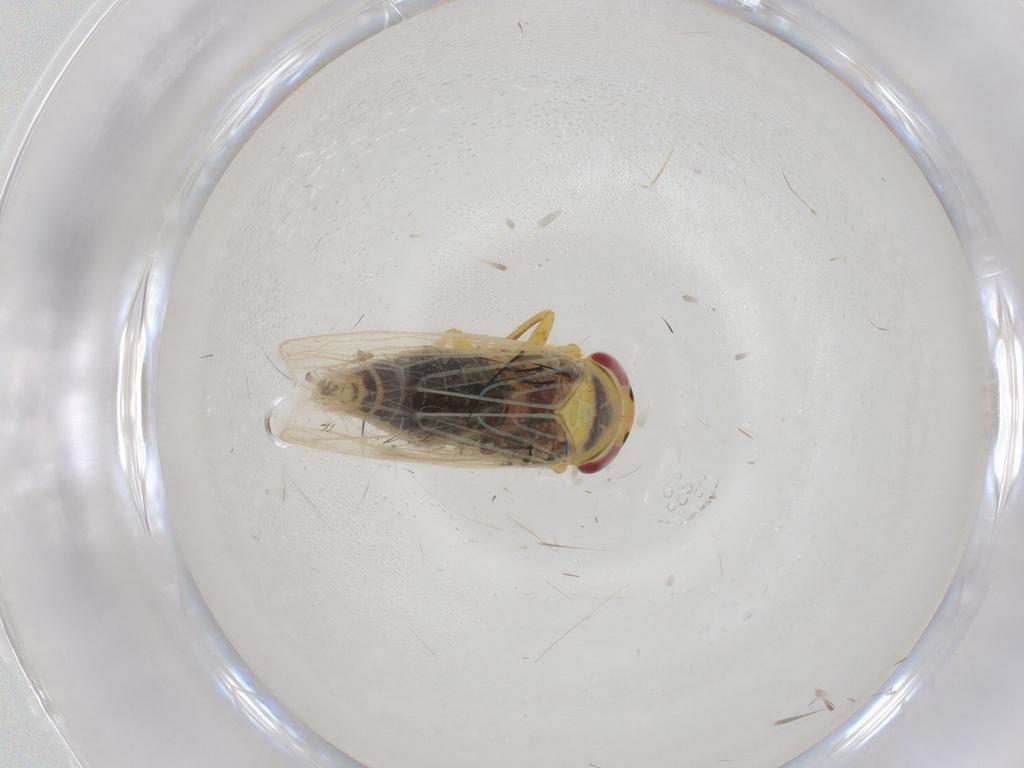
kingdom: Animalia
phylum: Arthropoda
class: Insecta
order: Hemiptera
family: Cicadellidae
